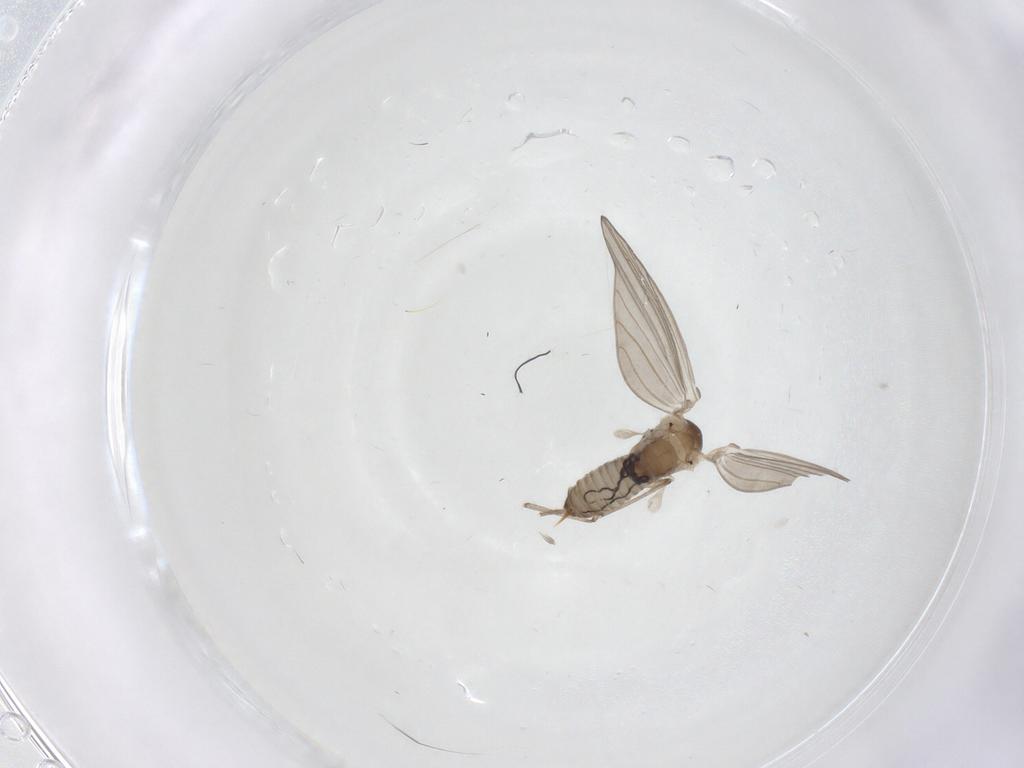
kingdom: Animalia
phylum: Arthropoda
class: Insecta
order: Diptera
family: Psychodidae
